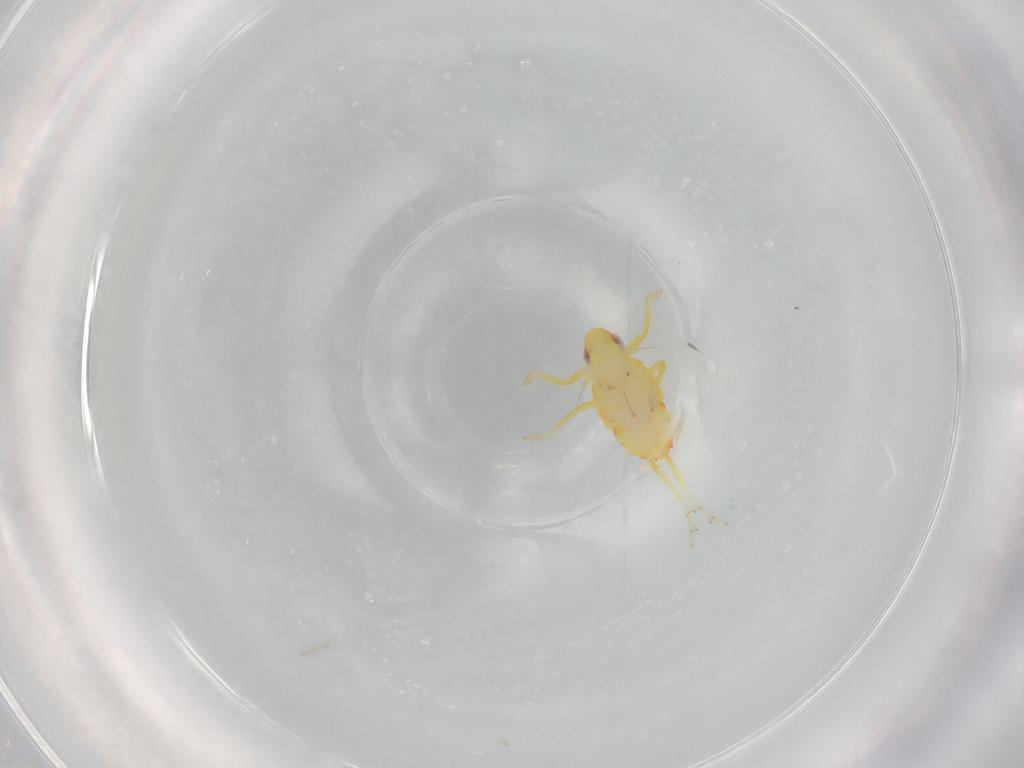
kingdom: Animalia
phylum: Arthropoda
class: Insecta
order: Hemiptera
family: Tropiduchidae
